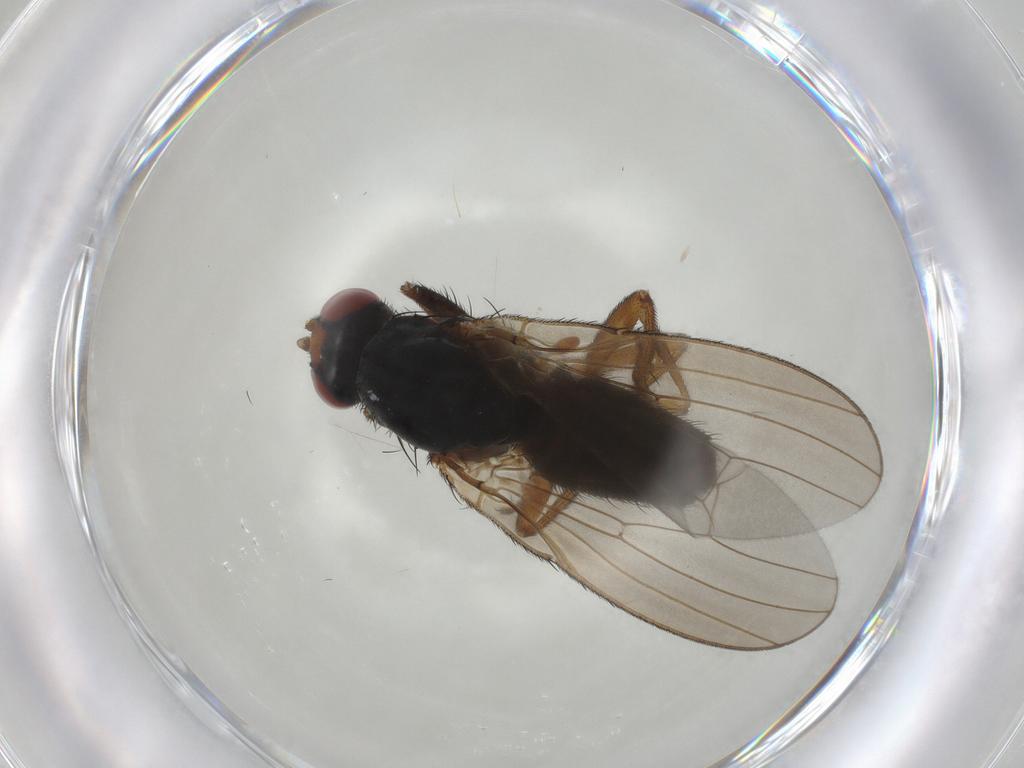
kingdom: Animalia
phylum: Arthropoda
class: Insecta
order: Diptera
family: Heleomyzidae
